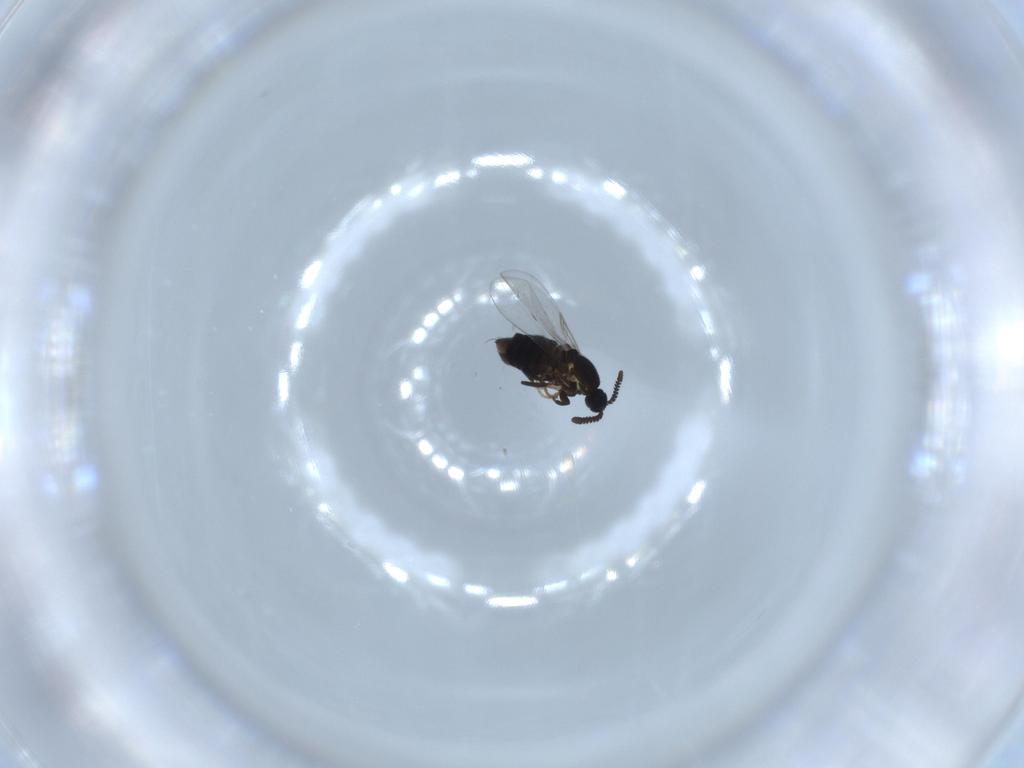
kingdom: Animalia
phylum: Arthropoda
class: Insecta
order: Diptera
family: Scatopsidae
